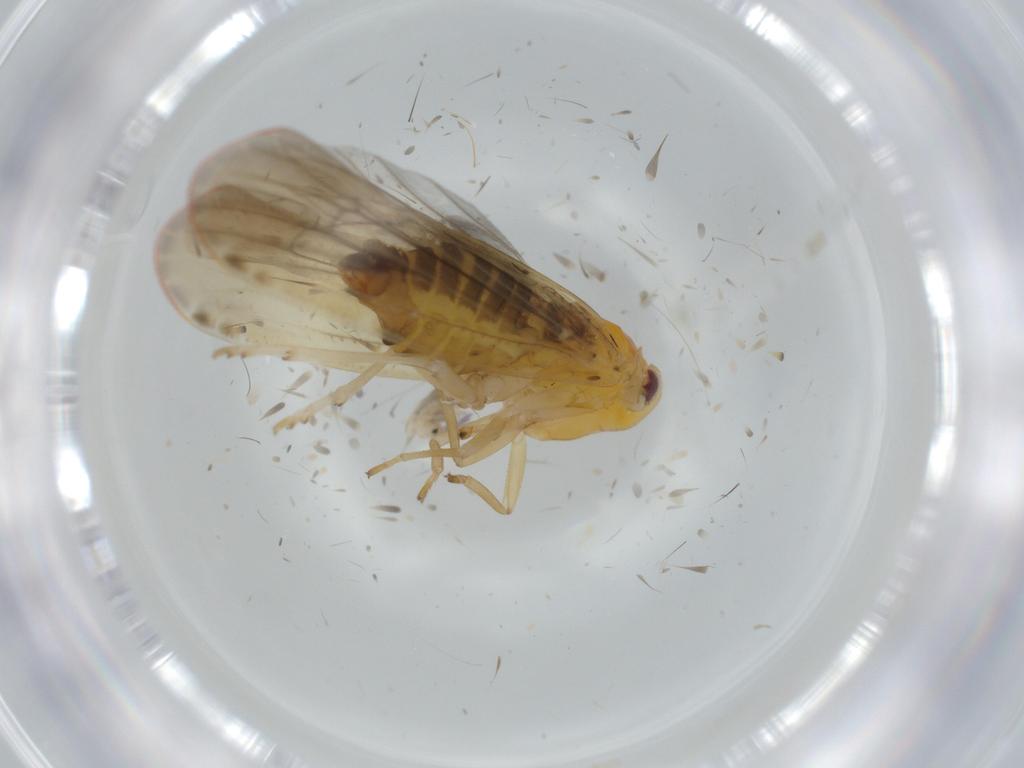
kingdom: Animalia
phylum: Arthropoda
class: Insecta
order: Hemiptera
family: Derbidae
